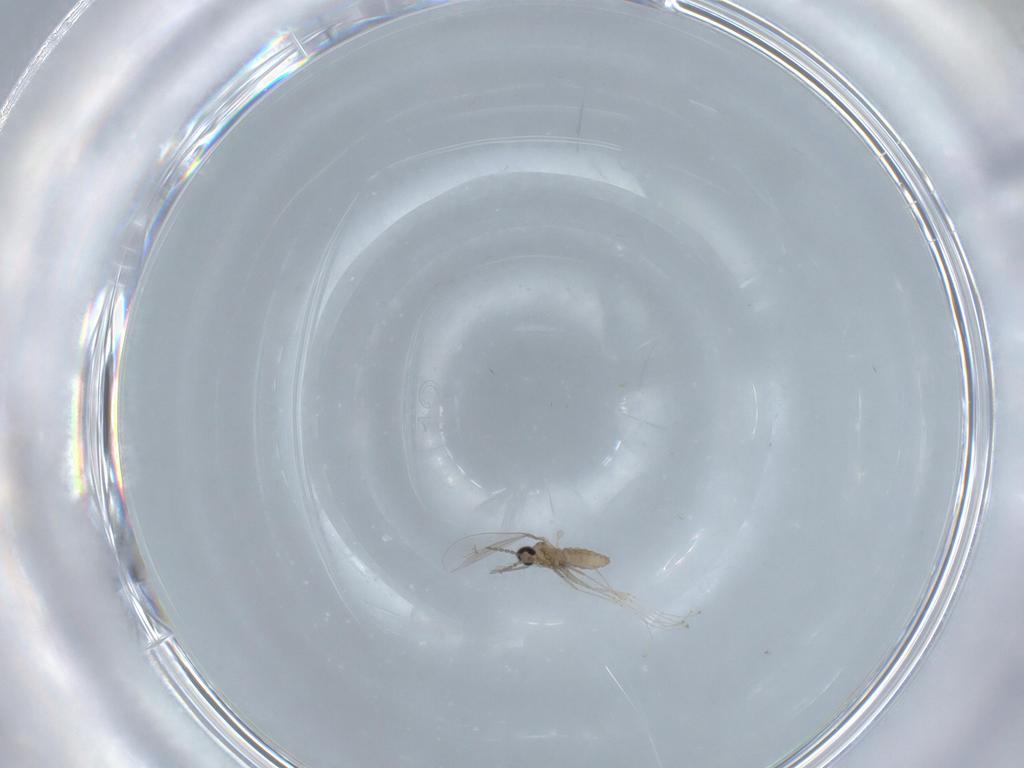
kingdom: Animalia
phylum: Arthropoda
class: Insecta
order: Diptera
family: Cecidomyiidae
